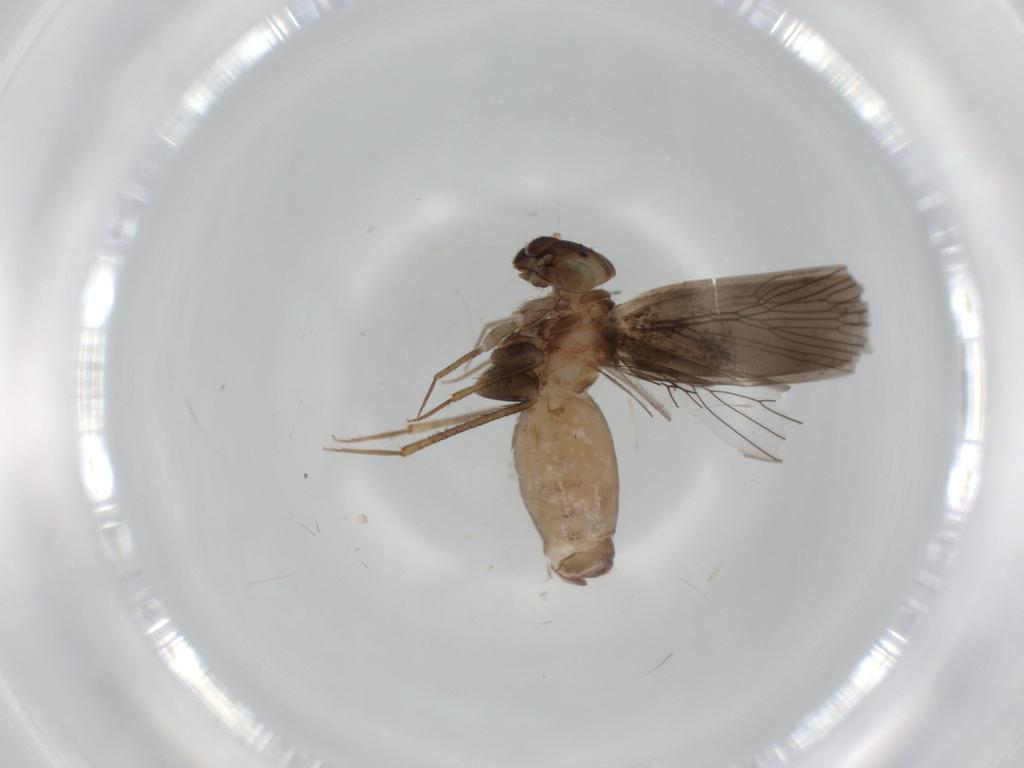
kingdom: Animalia
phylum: Arthropoda
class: Insecta
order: Psocodea
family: Lepidopsocidae
